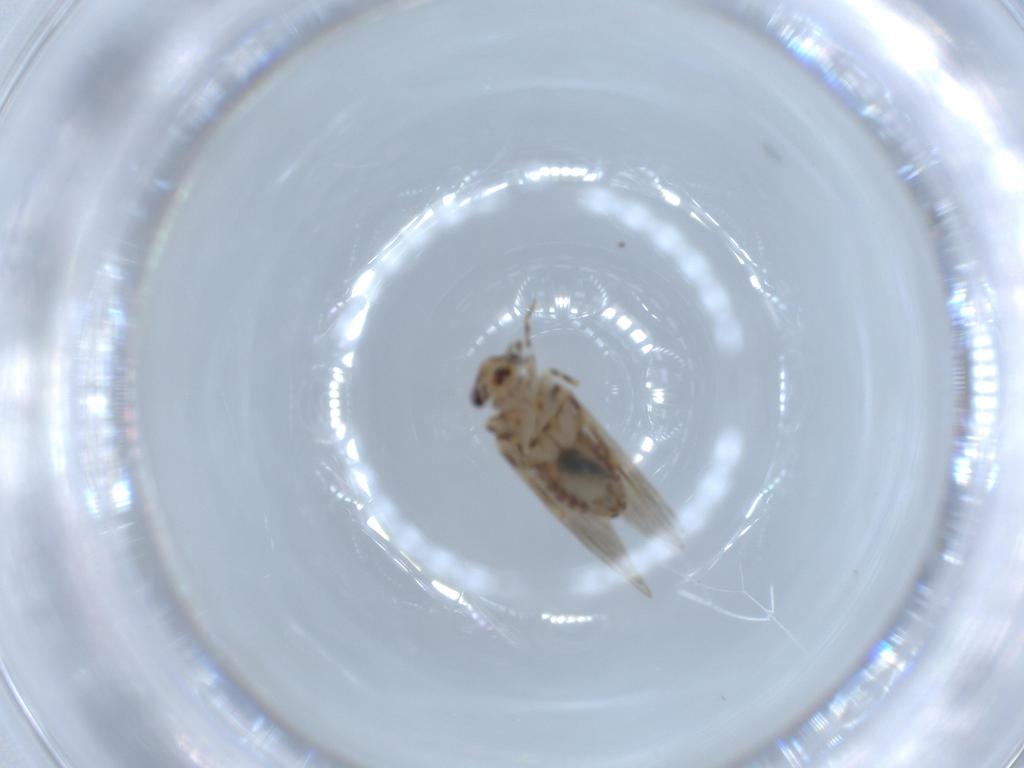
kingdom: Animalia
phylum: Arthropoda
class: Insecta
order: Psocodea
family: Lepidopsocidae
